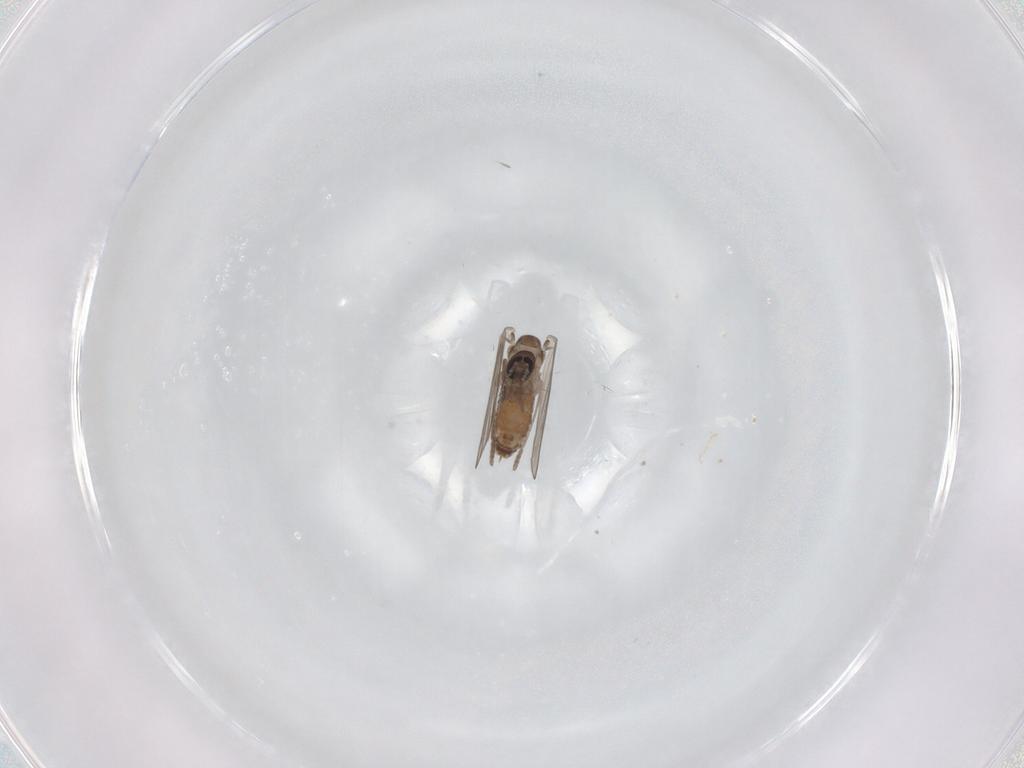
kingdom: Animalia
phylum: Arthropoda
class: Insecta
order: Diptera
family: Psychodidae
